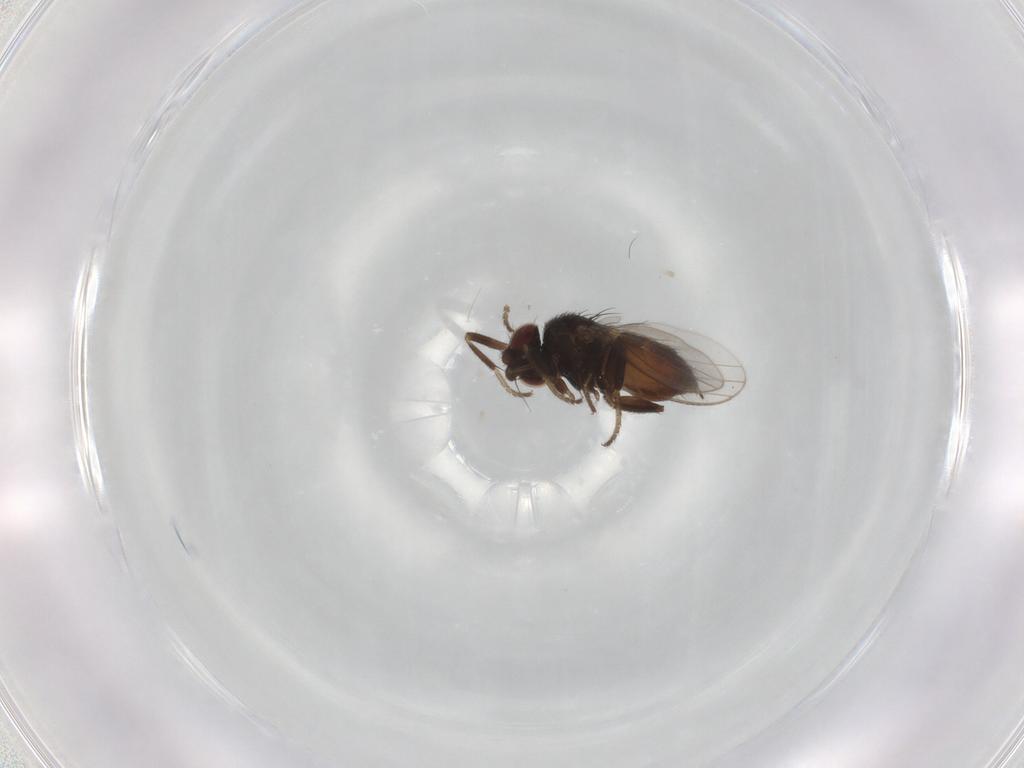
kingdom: Animalia
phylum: Arthropoda
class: Insecta
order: Diptera
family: Milichiidae
